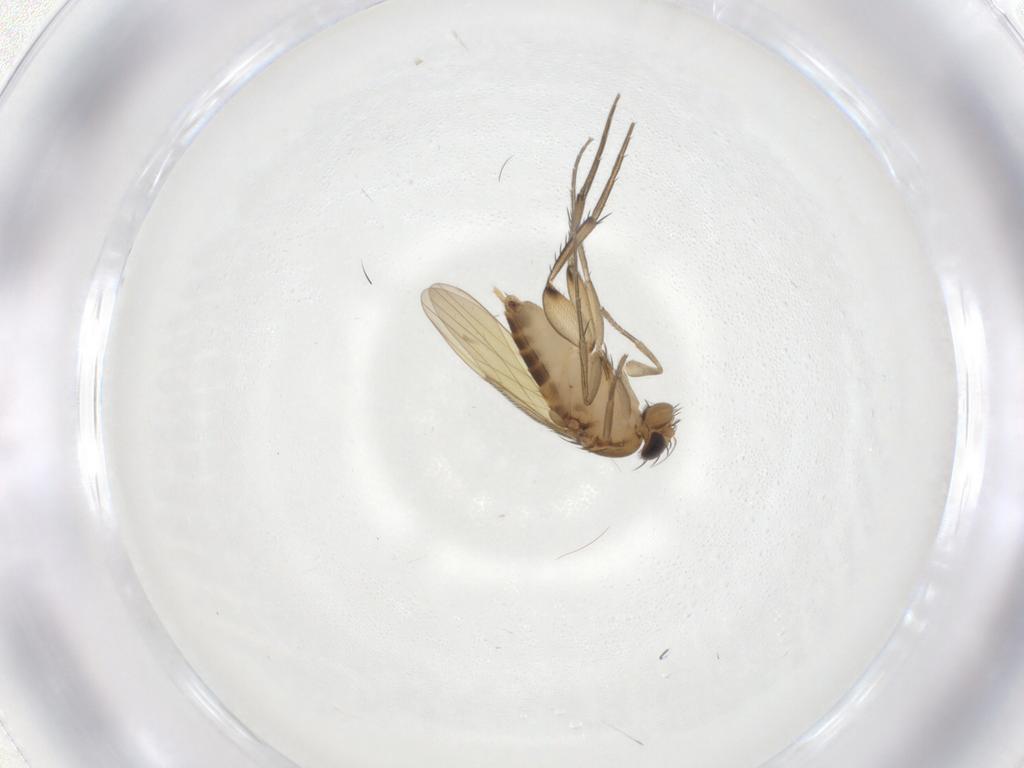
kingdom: Animalia
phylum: Arthropoda
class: Insecta
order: Diptera
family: Phoridae
